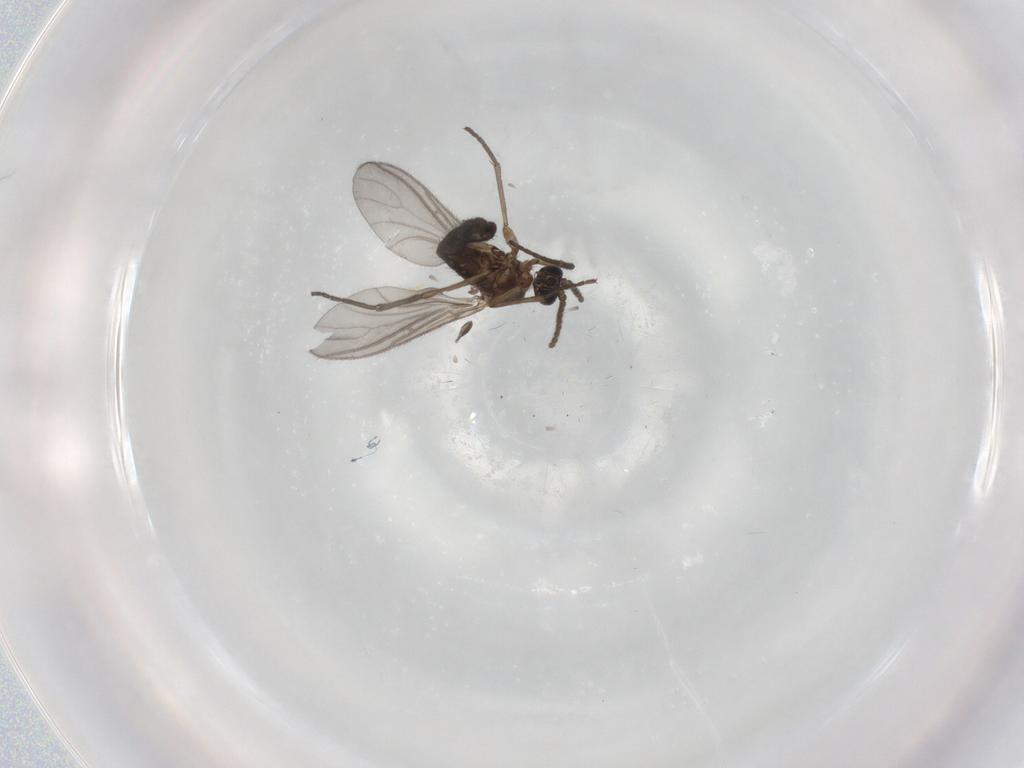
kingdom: Animalia
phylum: Arthropoda
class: Insecta
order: Diptera
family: Sciaridae
